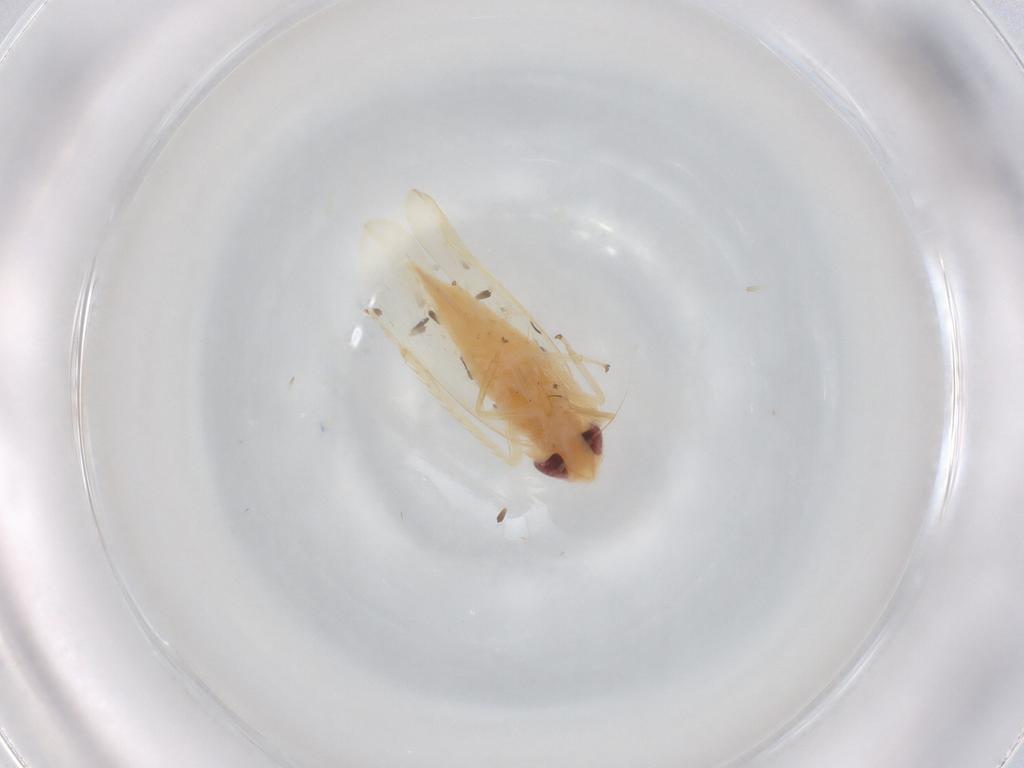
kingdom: Animalia
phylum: Arthropoda
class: Insecta
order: Hemiptera
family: Cicadellidae
